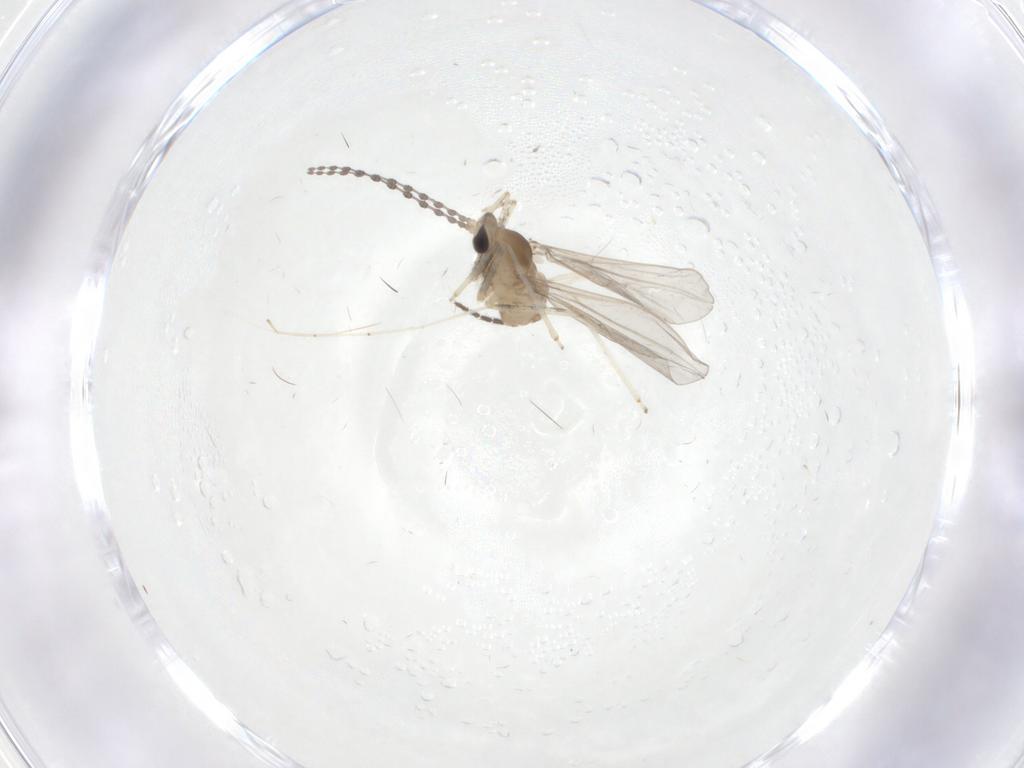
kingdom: Animalia
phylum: Arthropoda
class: Insecta
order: Diptera
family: Cecidomyiidae
